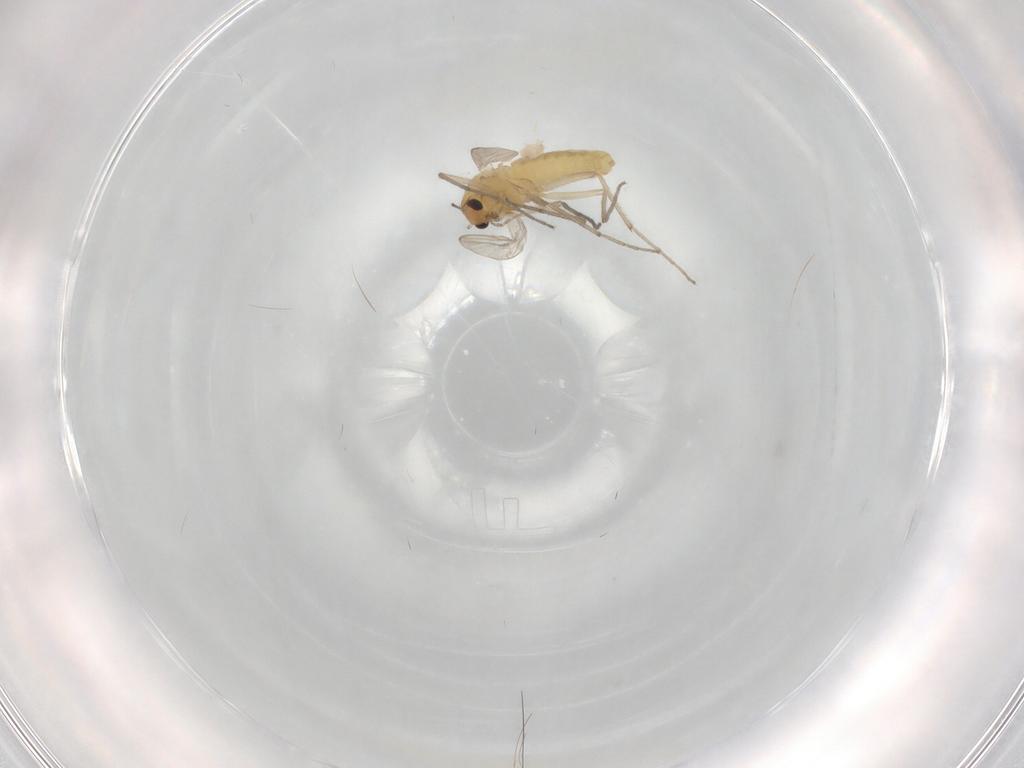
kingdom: Animalia
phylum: Arthropoda
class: Insecta
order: Diptera
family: Chironomidae
